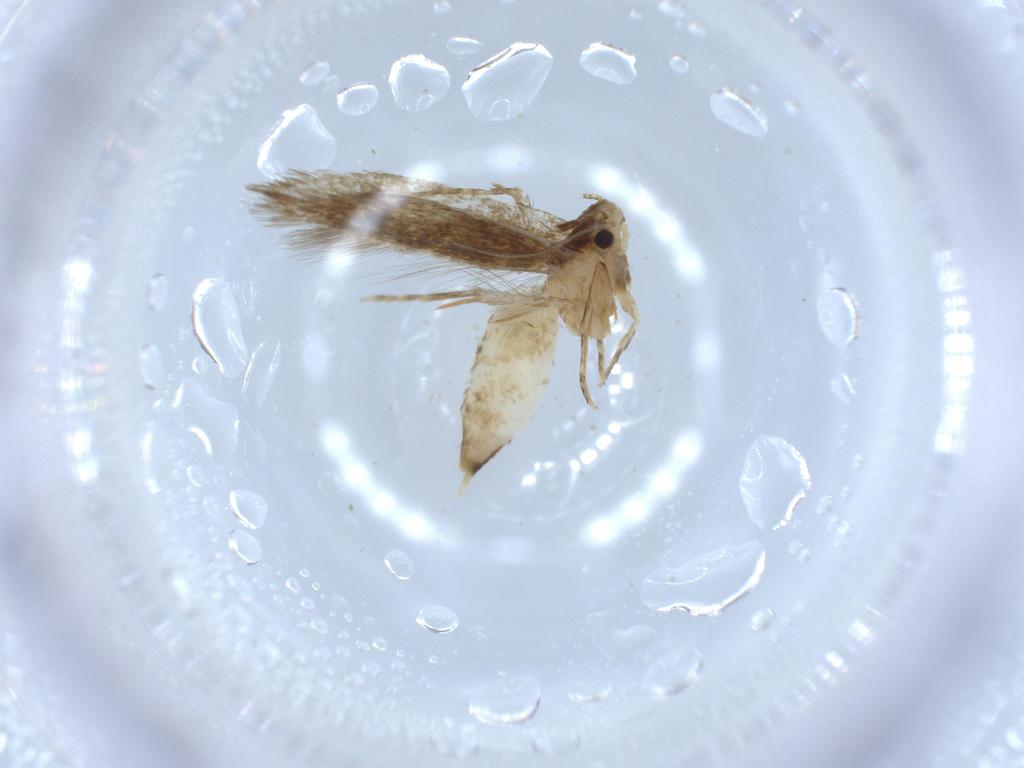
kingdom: Animalia
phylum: Arthropoda
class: Insecta
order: Lepidoptera
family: Tineidae
